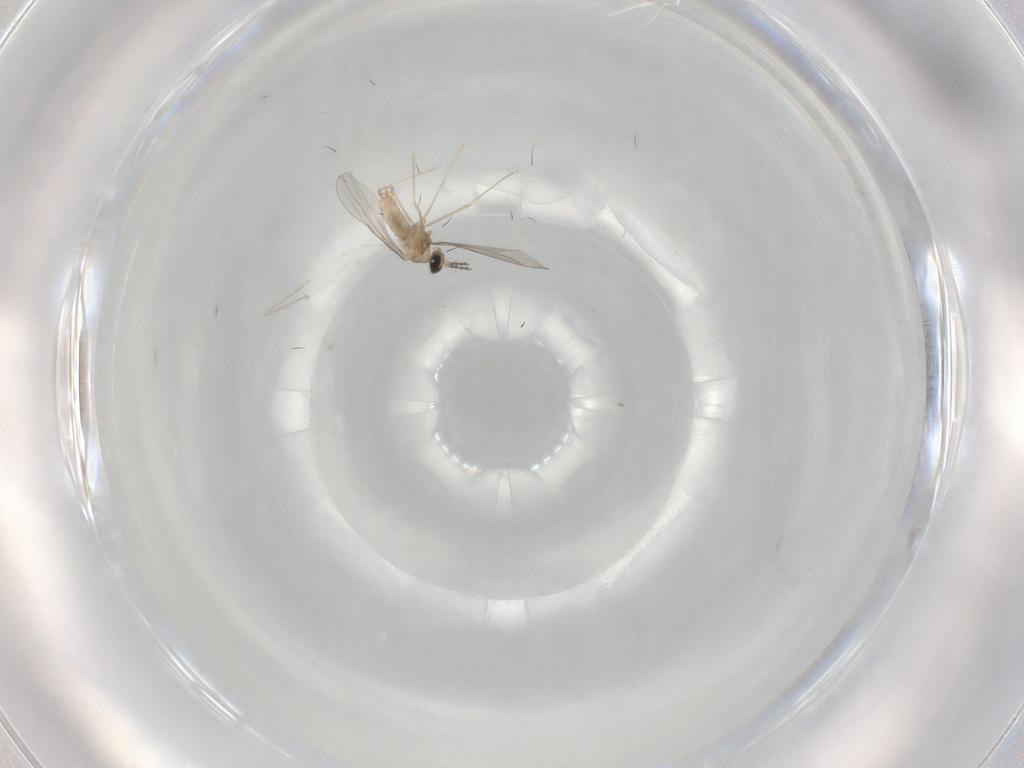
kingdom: Animalia
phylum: Arthropoda
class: Insecta
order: Diptera
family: Cecidomyiidae
